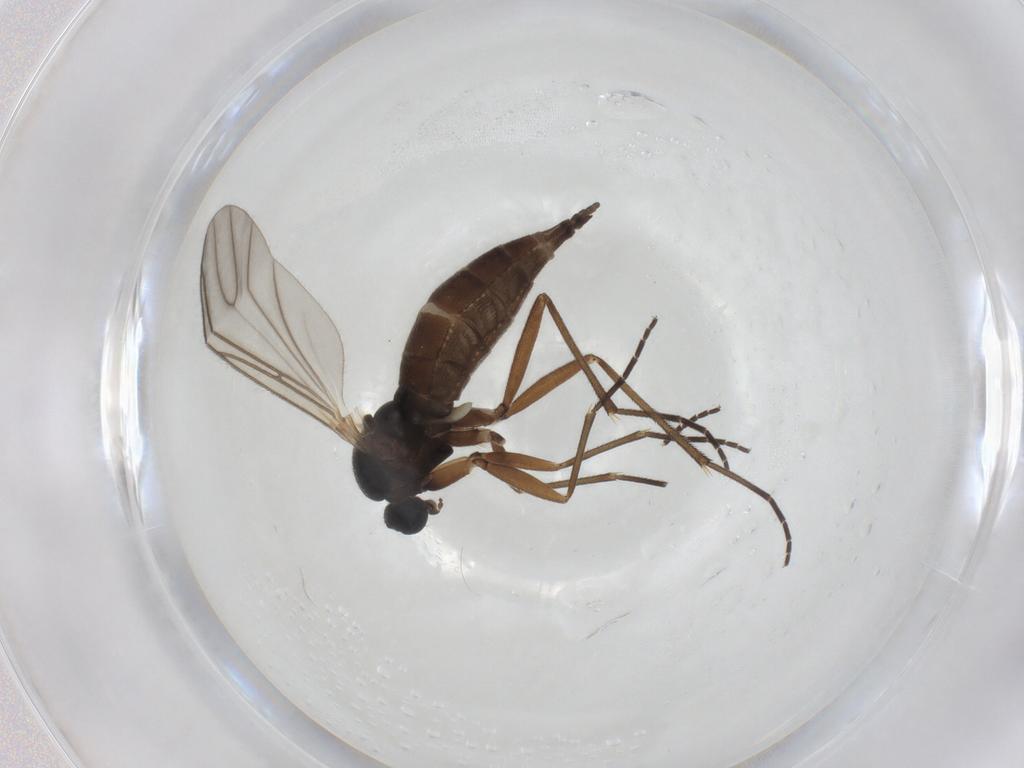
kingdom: Animalia
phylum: Arthropoda
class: Insecta
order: Diptera
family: Sciaridae
